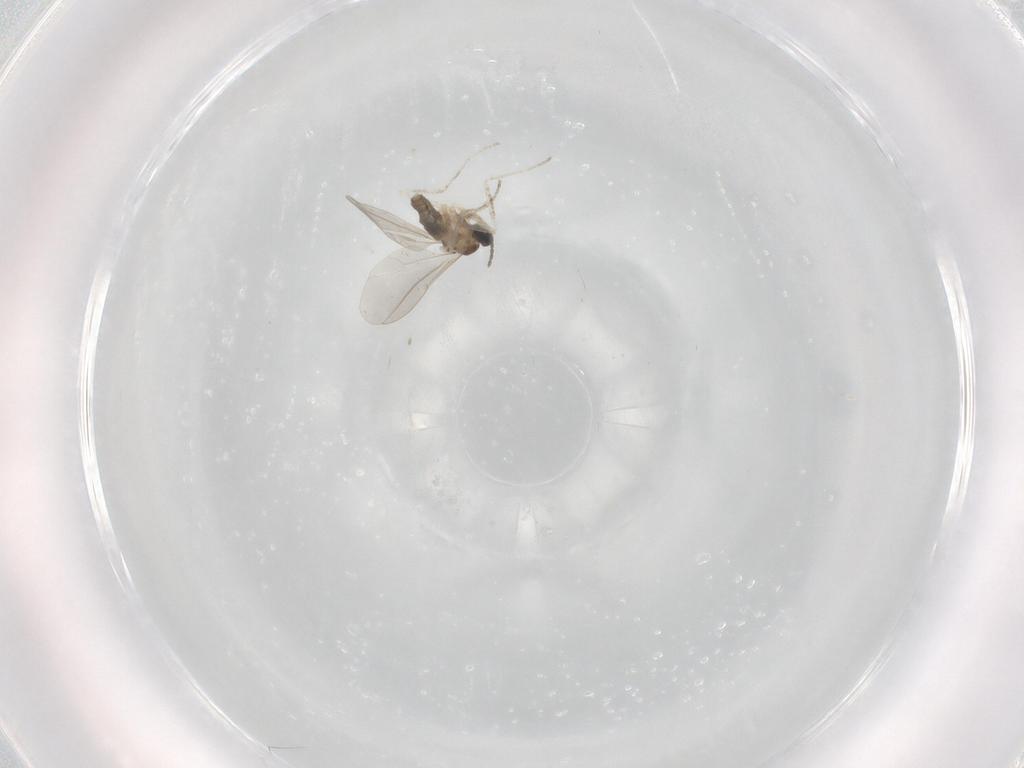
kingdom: Animalia
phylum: Arthropoda
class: Insecta
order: Diptera
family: Cecidomyiidae
